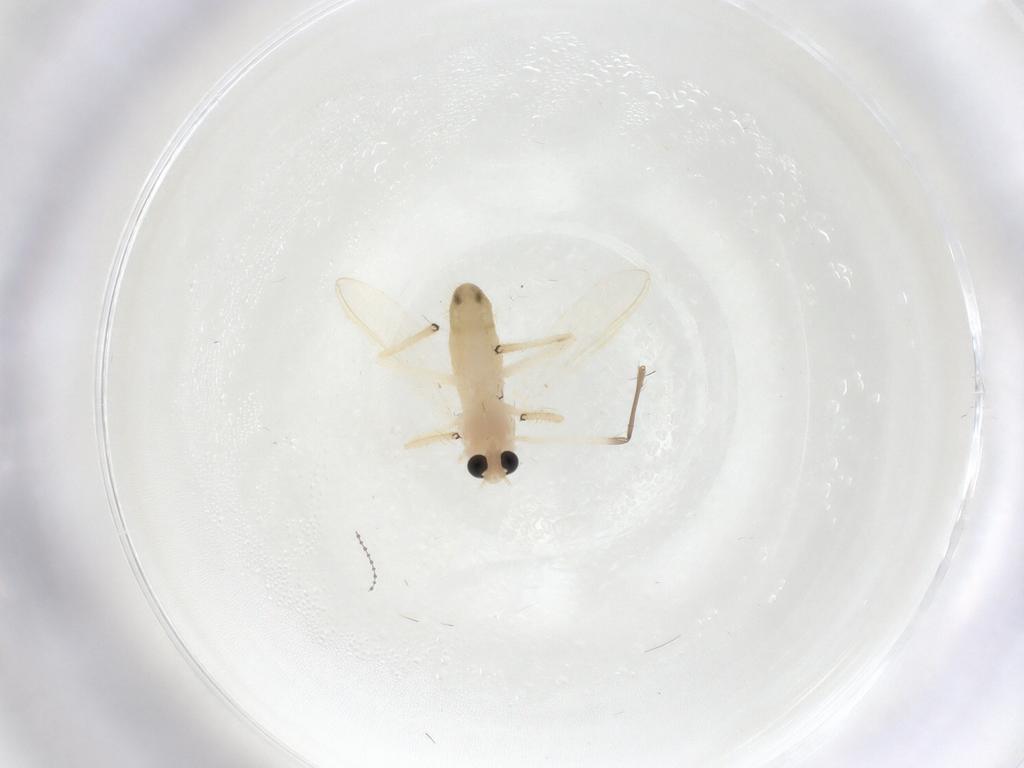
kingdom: Animalia
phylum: Arthropoda
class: Insecta
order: Diptera
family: Chironomidae
